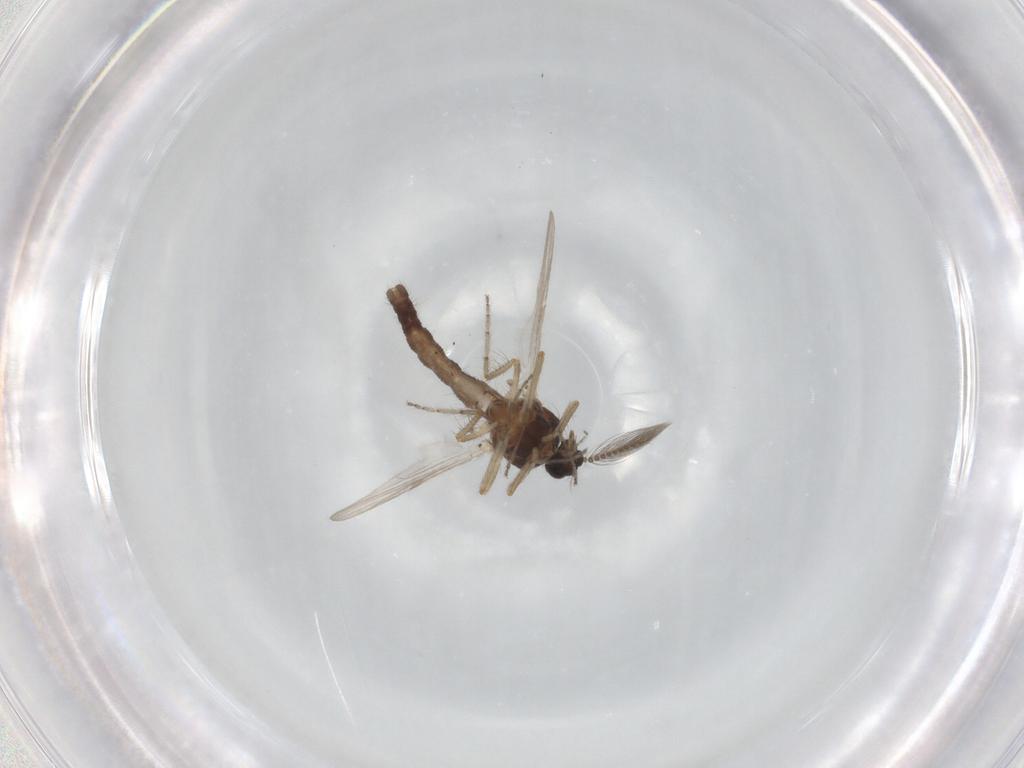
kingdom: Animalia
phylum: Arthropoda
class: Insecta
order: Diptera
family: Ceratopogonidae
